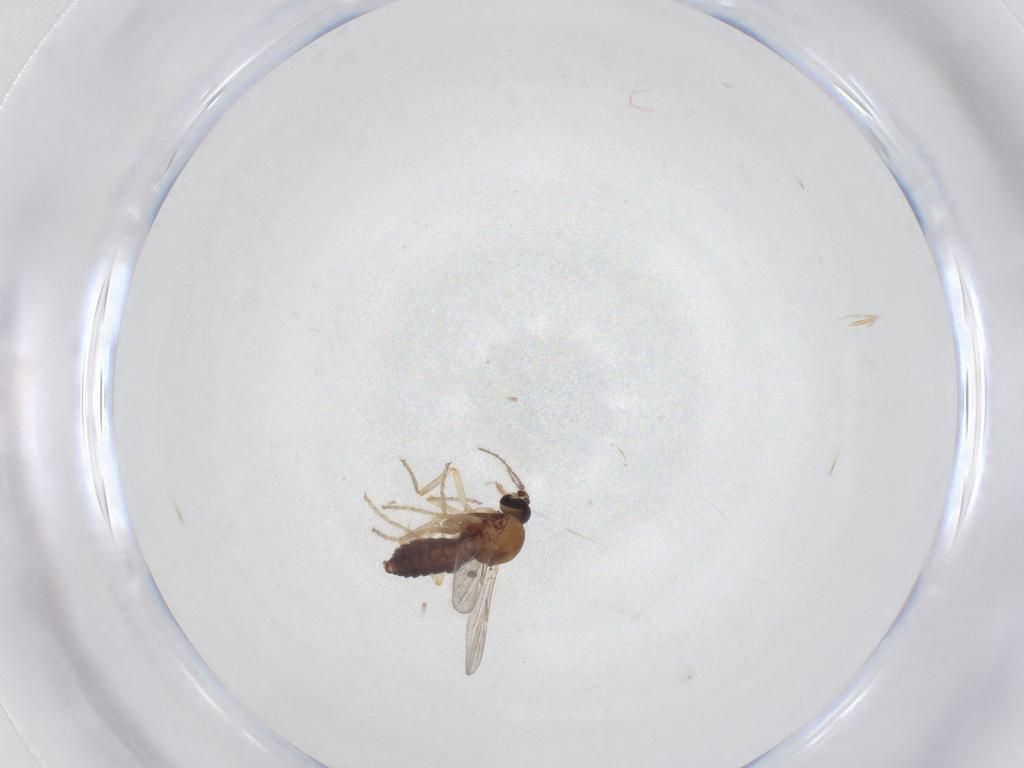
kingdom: Animalia
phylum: Arthropoda
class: Insecta
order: Diptera
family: Ceratopogonidae
